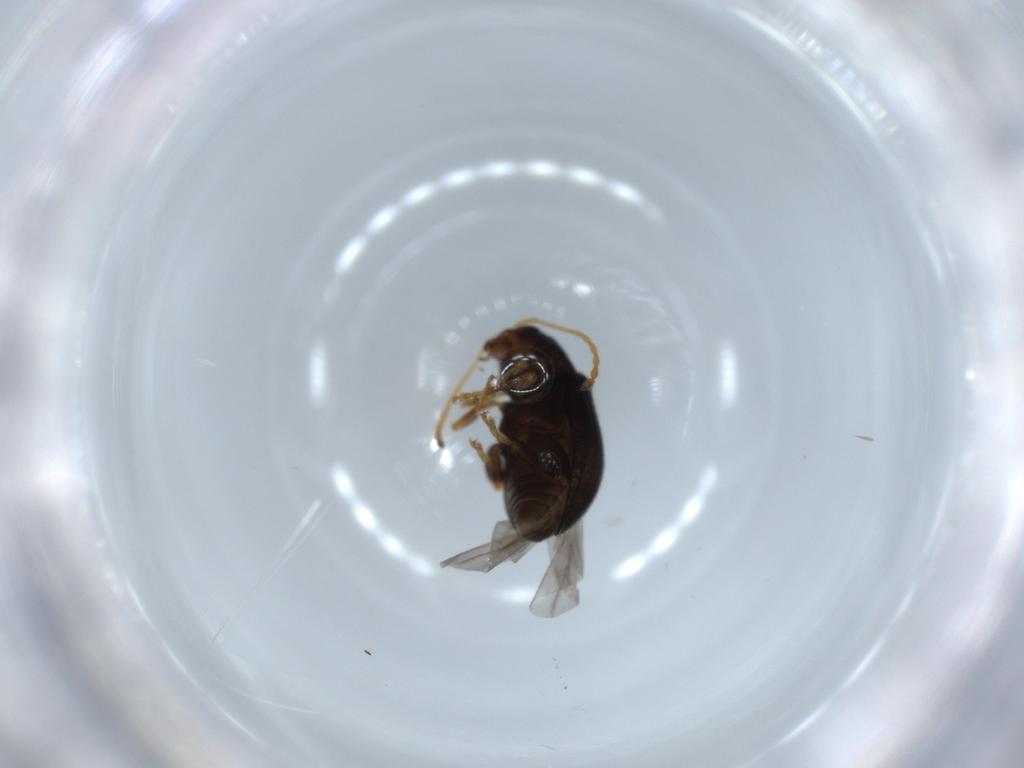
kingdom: Animalia
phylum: Arthropoda
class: Insecta
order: Coleoptera
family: Chrysomelidae
